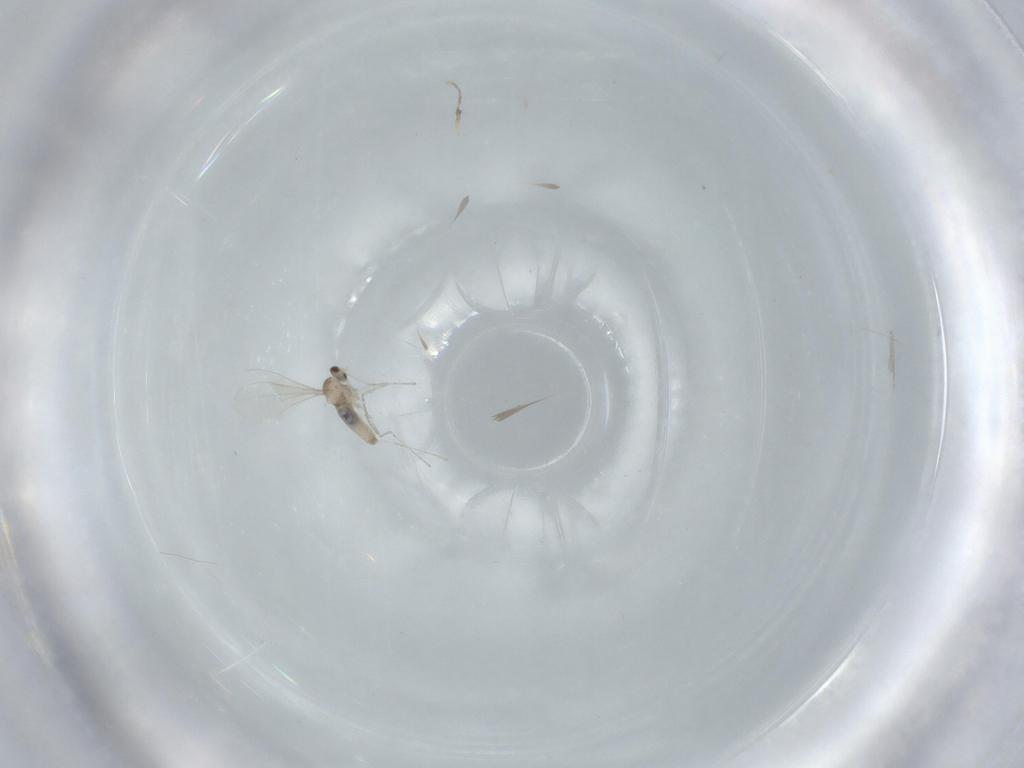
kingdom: Animalia
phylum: Arthropoda
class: Insecta
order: Diptera
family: Cecidomyiidae
